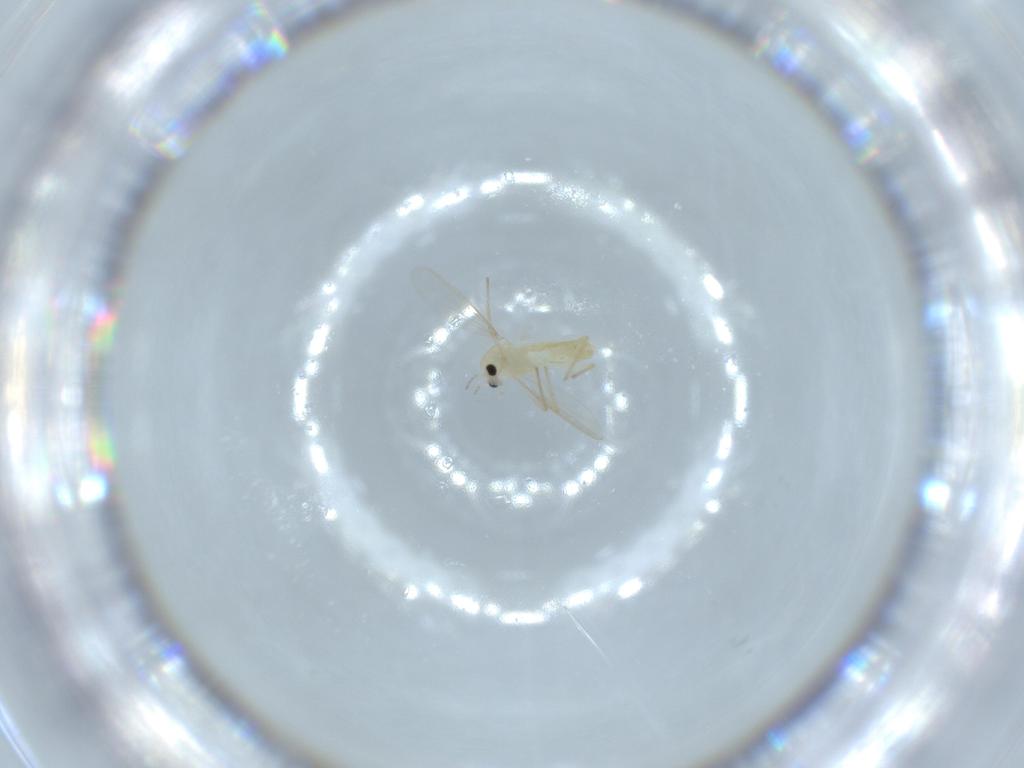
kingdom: Animalia
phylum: Arthropoda
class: Insecta
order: Diptera
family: Chironomidae
